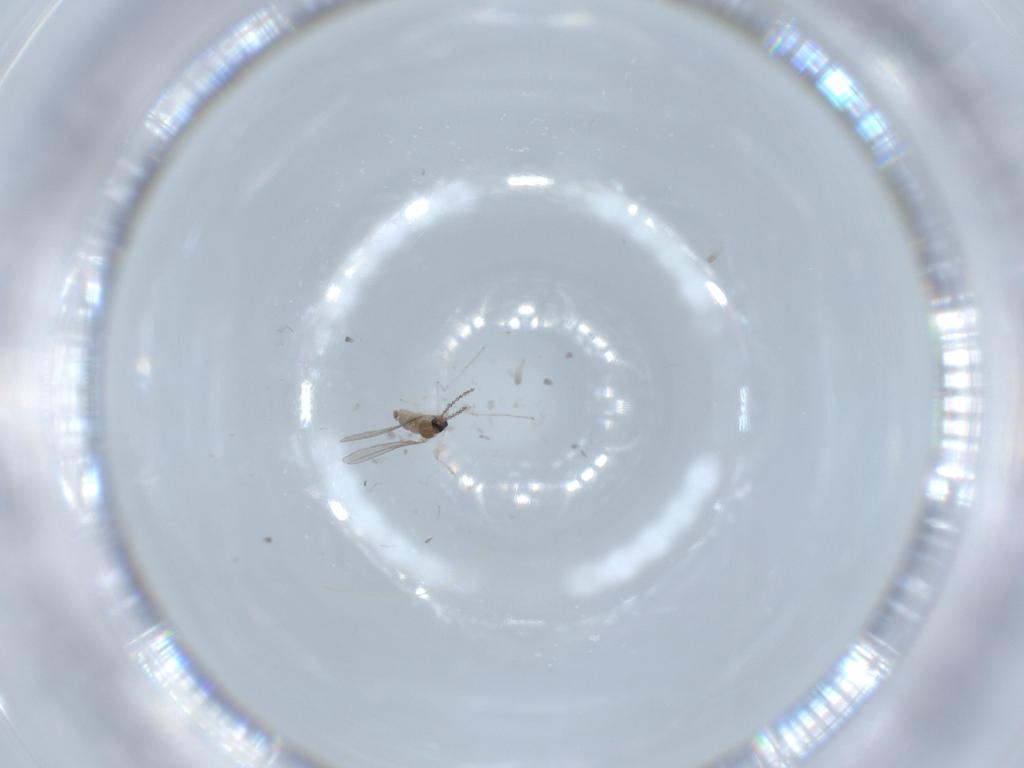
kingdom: Animalia
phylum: Arthropoda
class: Insecta
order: Diptera
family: Cecidomyiidae
